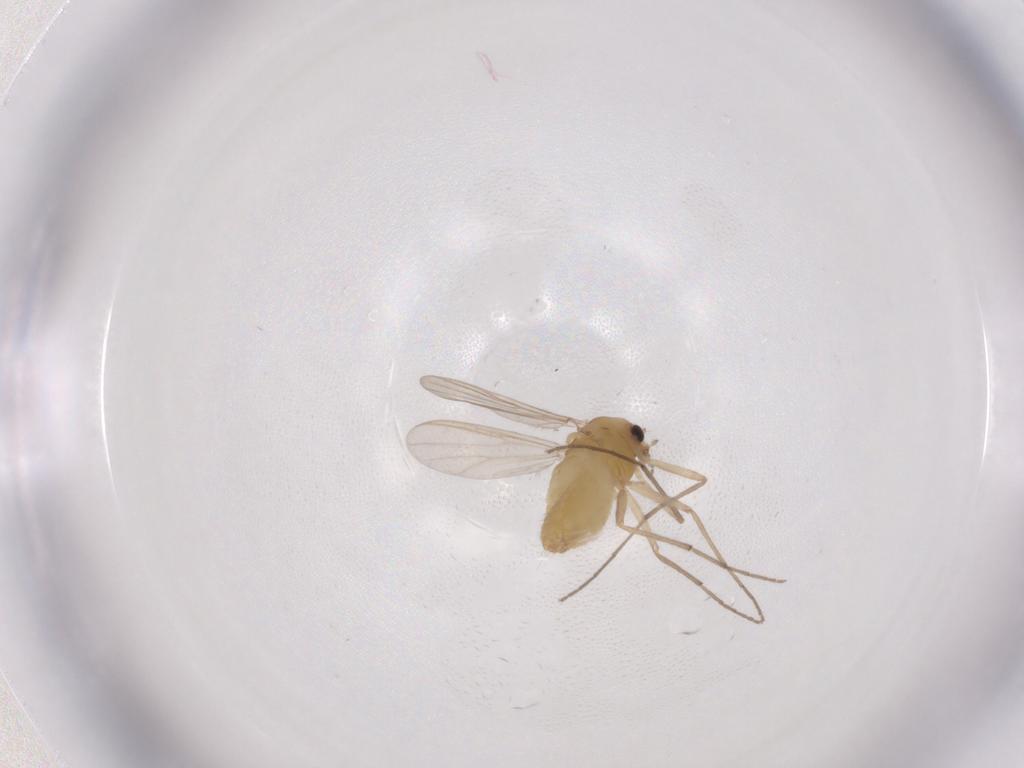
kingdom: Animalia
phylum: Arthropoda
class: Insecta
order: Diptera
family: Chironomidae
